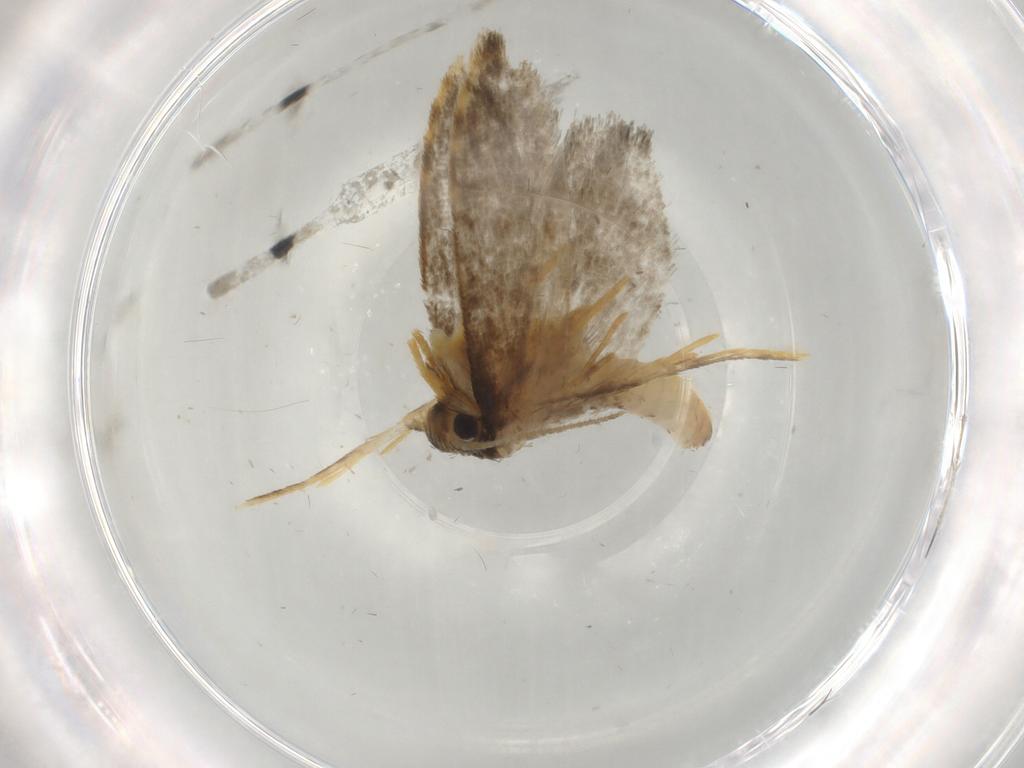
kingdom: Animalia
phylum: Arthropoda
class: Insecta
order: Lepidoptera
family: Psychidae
